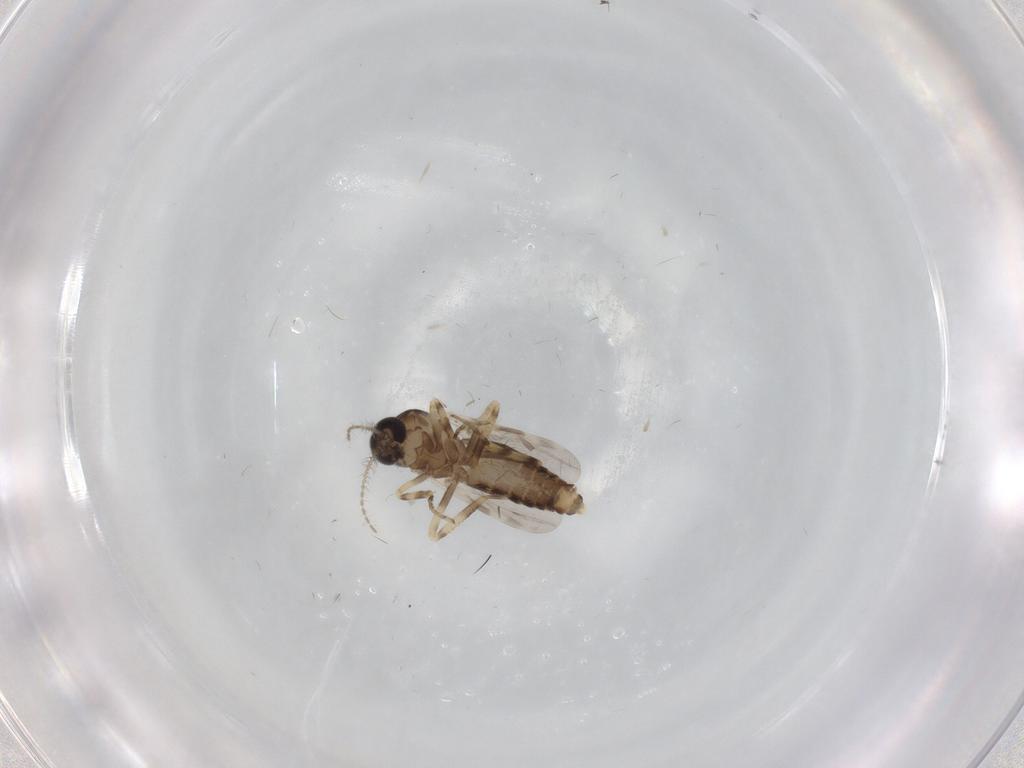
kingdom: Animalia
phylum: Arthropoda
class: Insecta
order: Diptera
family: Ceratopogonidae
